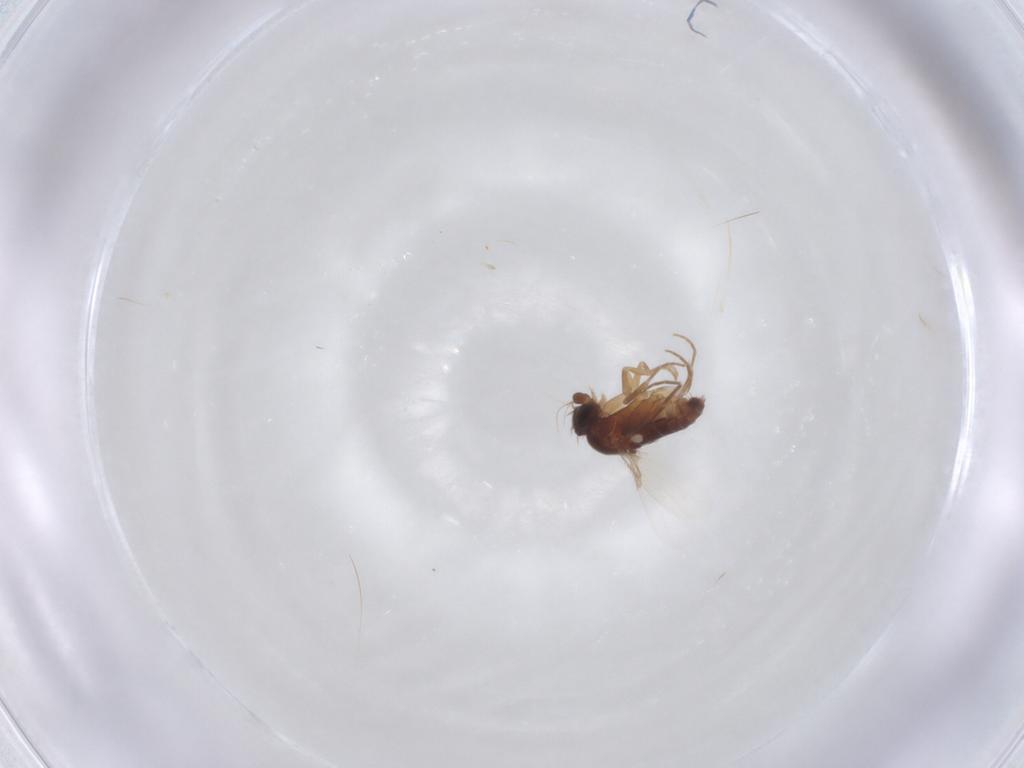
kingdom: Animalia
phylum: Arthropoda
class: Insecta
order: Diptera
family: Asteiidae
